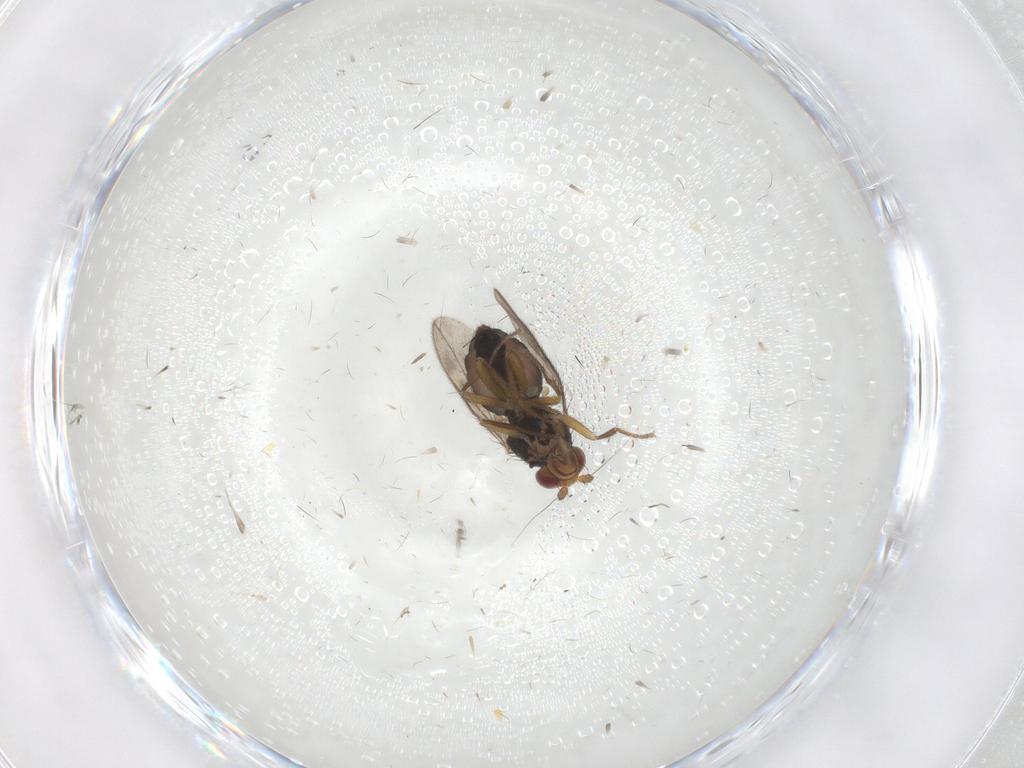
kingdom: Animalia
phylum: Arthropoda
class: Insecta
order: Diptera
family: Sphaeroceridae
